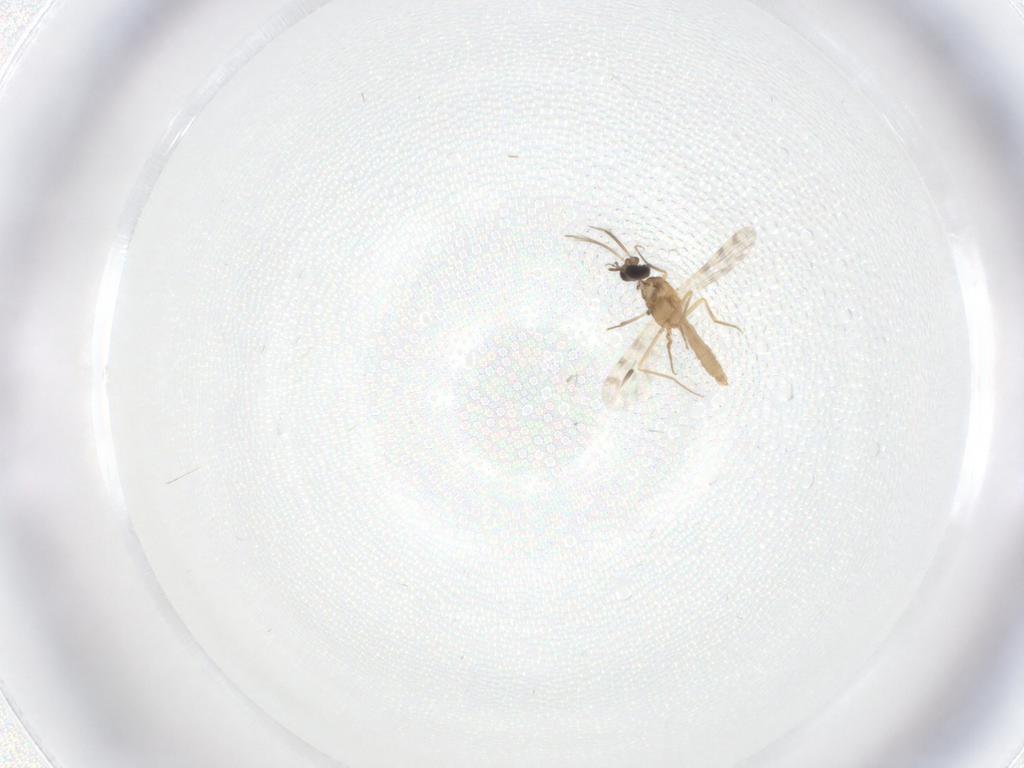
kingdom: Animalia
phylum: Arthropoda
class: Insecta
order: Diptera
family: Ceratopogonidae
